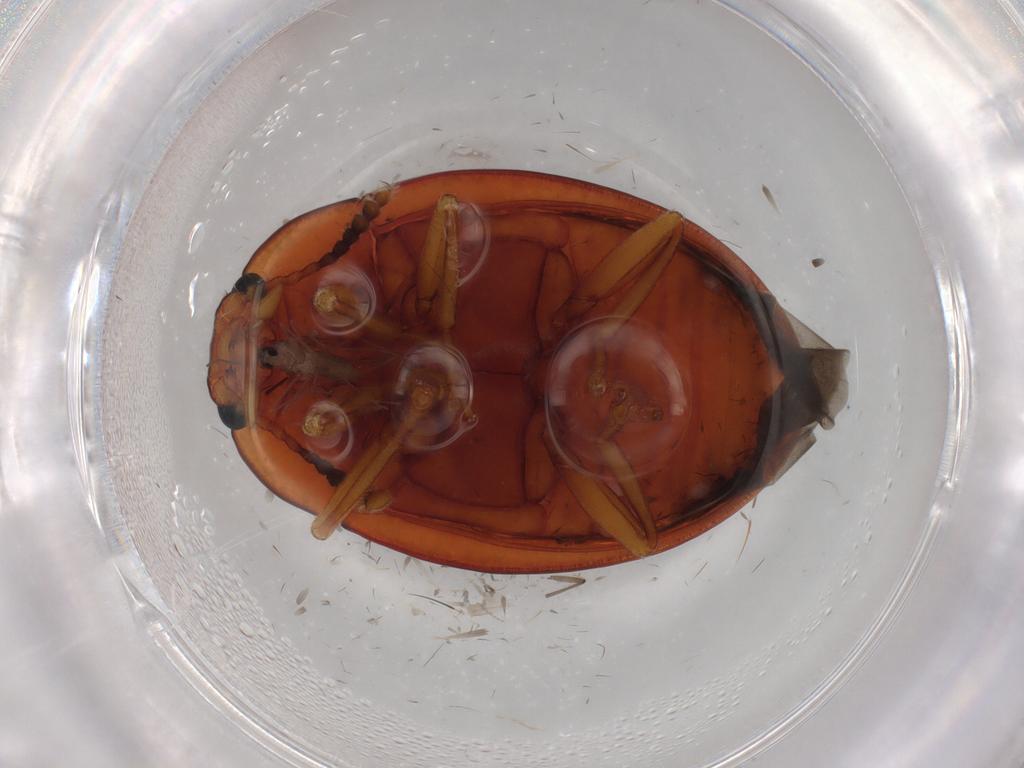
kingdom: Animalia
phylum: Arthropoda
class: Insecta
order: Coleoptera
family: Erotylidae
